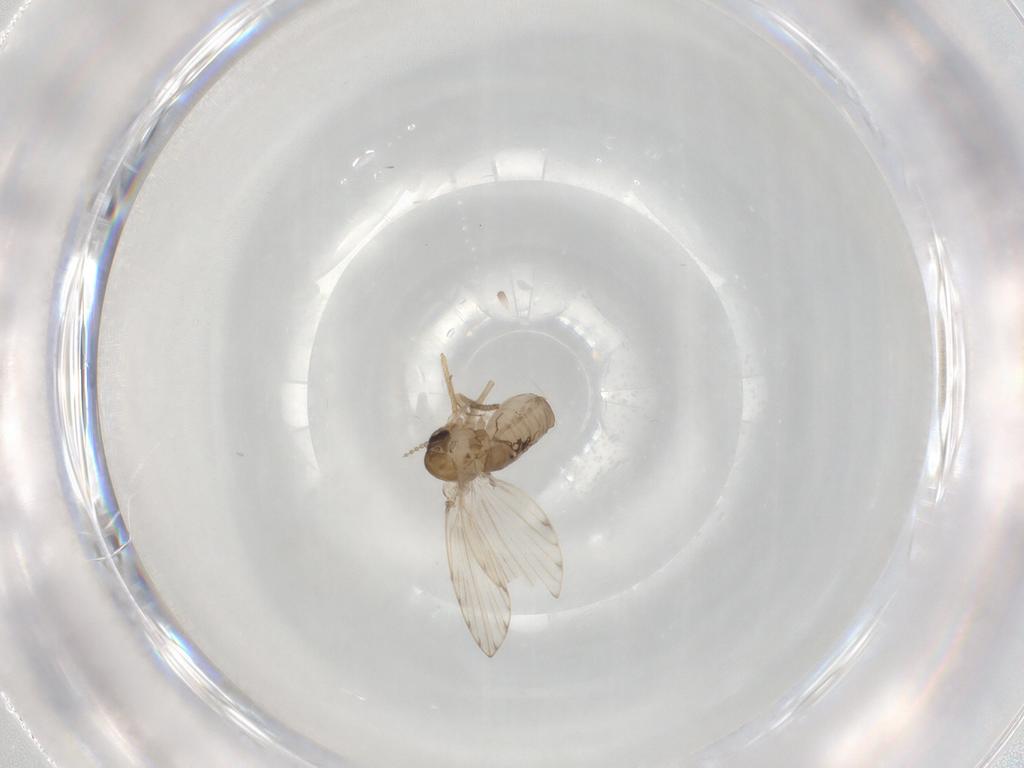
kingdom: Animalia
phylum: Arthropoda
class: Insecta
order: Diptera
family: Psychodidae
